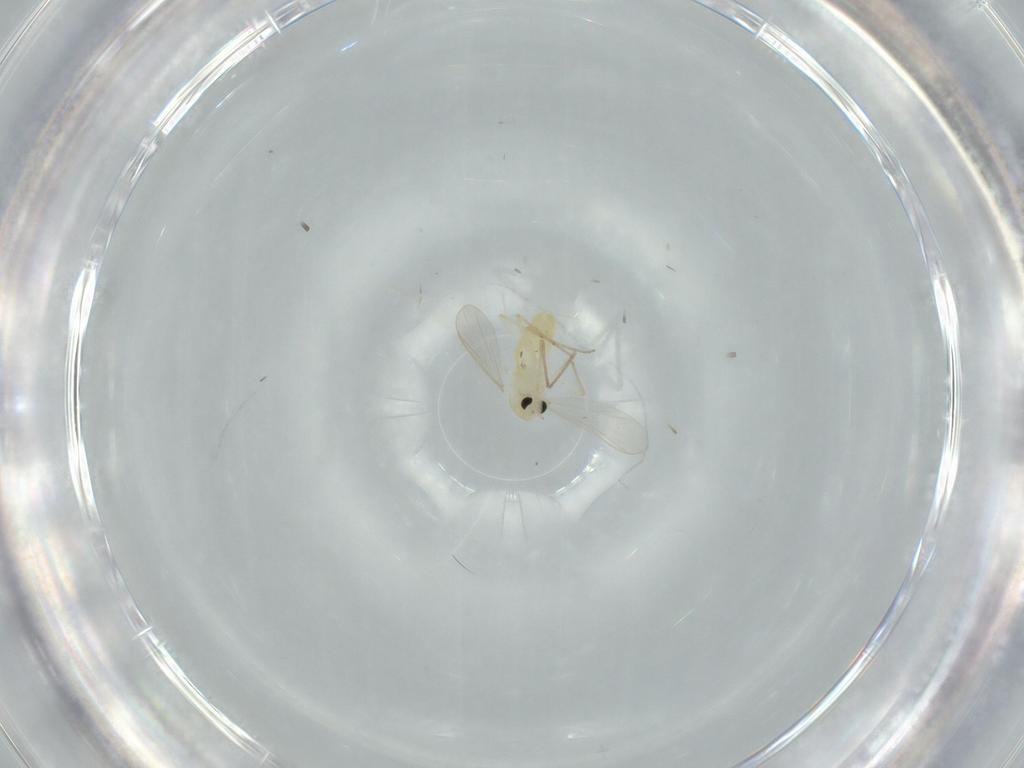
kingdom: Animalia
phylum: Arthropoda
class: Insecta
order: Diptera
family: Chironomidae
